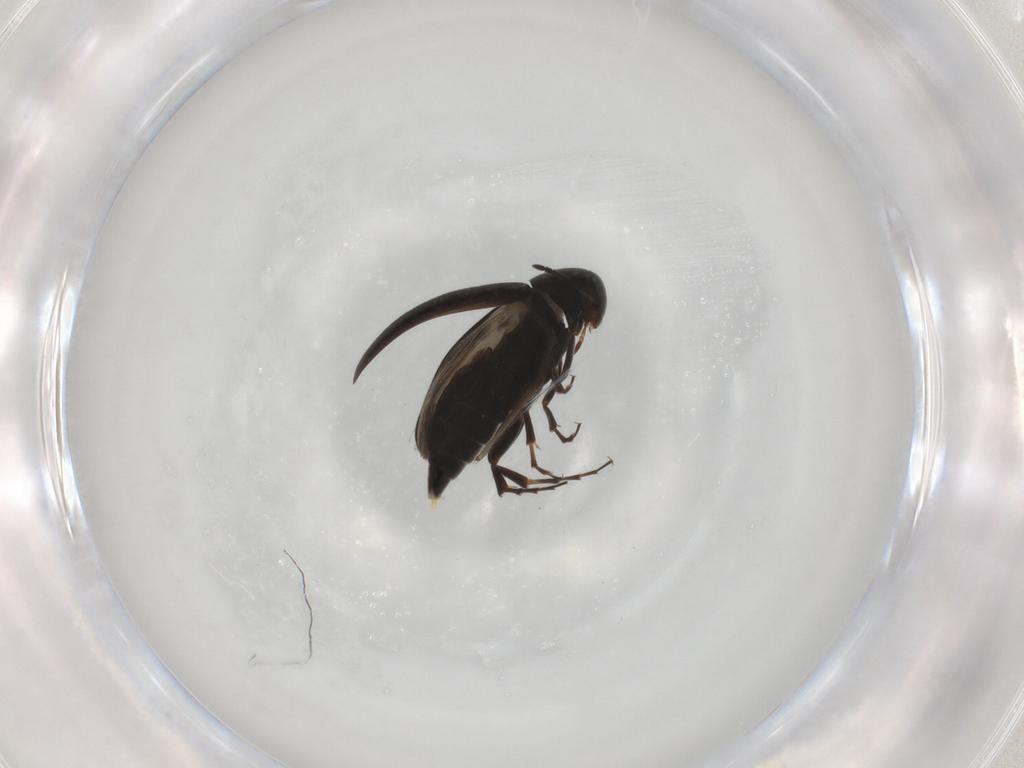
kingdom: Animalia
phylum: Arthropoda
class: Insecta
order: Coleoptera
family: Scraptiidae
